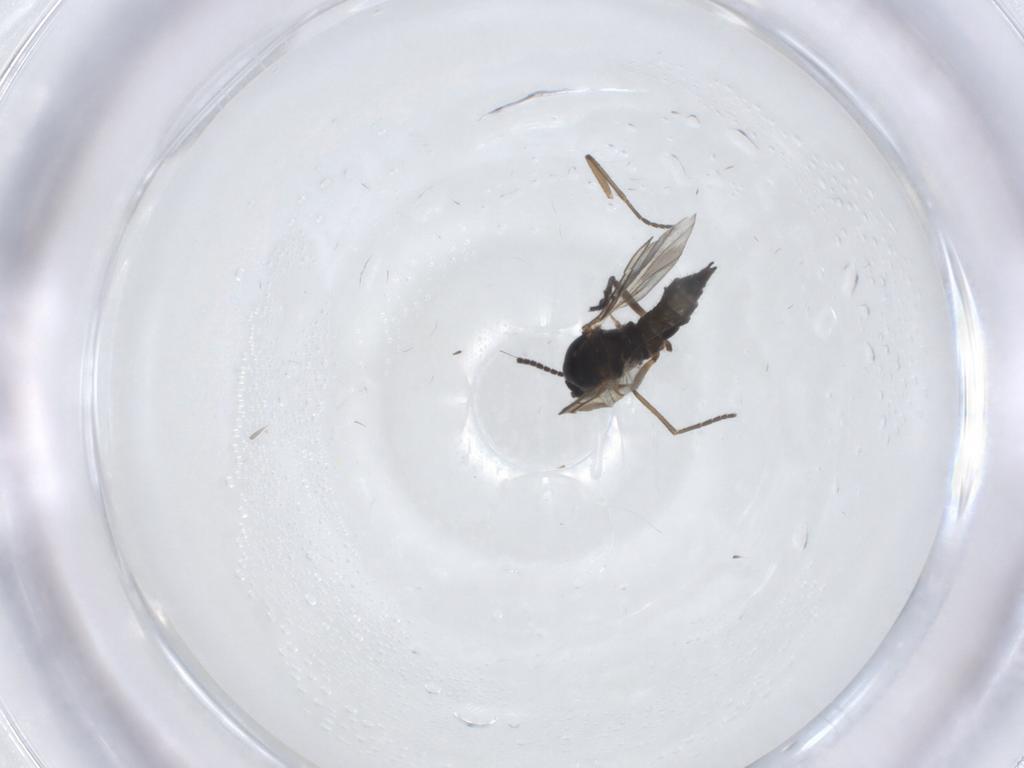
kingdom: Animalia
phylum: Arthropoda
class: Insecta
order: Diptera
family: Sciaridae
